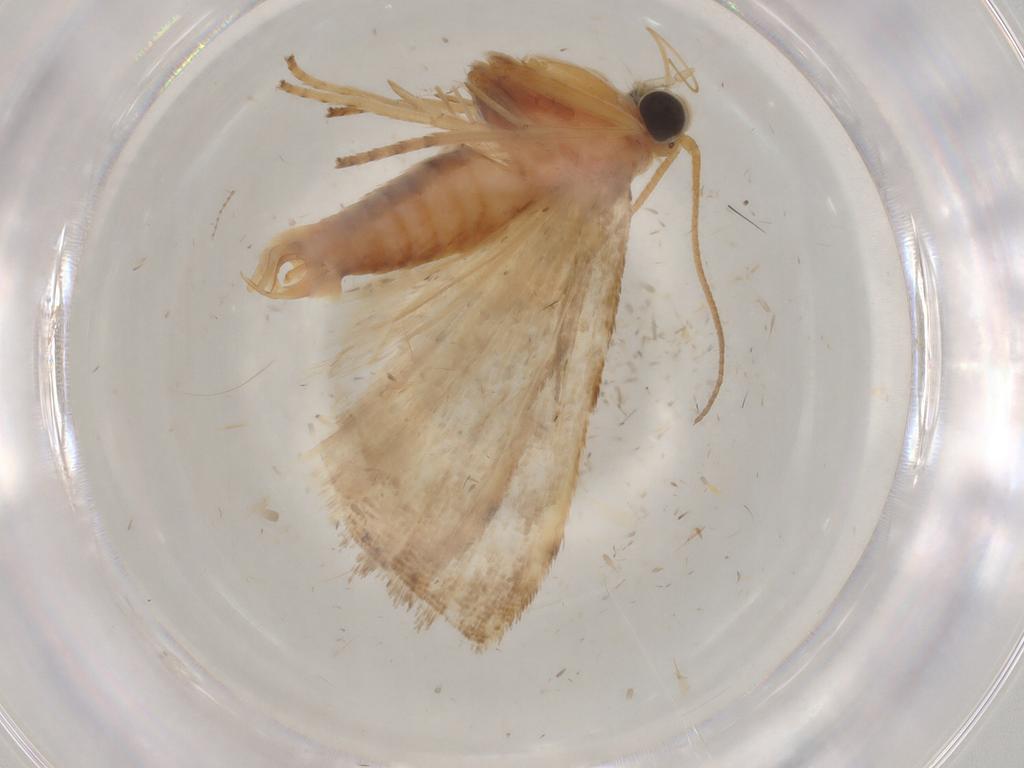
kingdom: Animalia
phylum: Arthropoda
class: Insecta
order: Lepidoptera
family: Pyralidae
